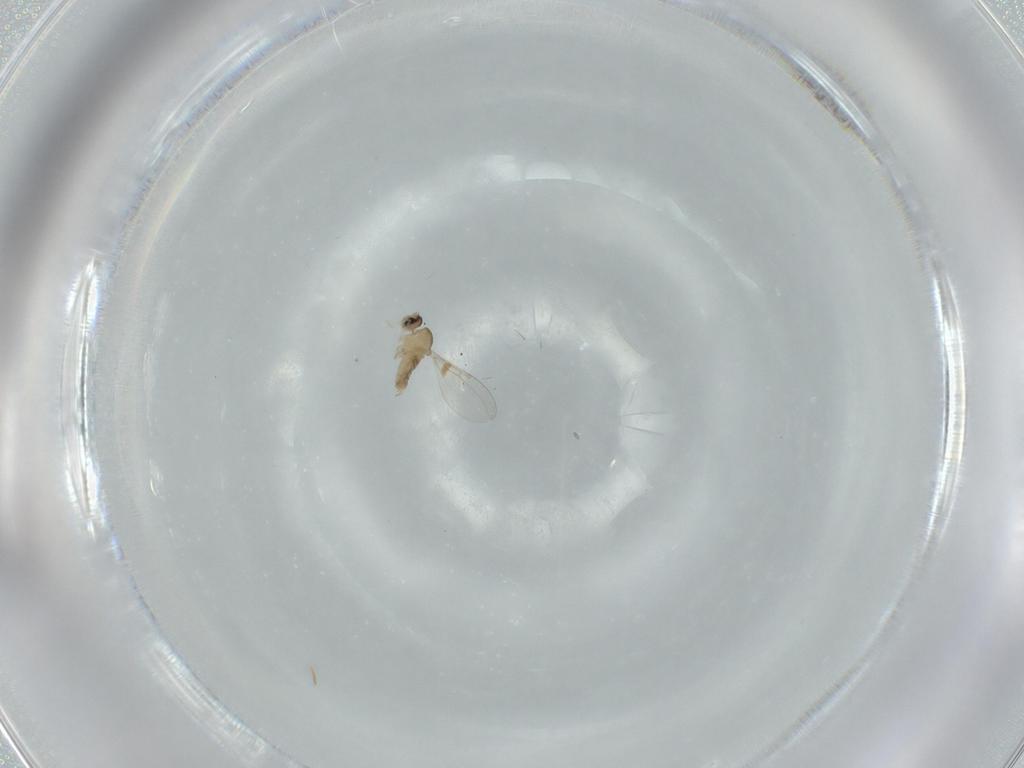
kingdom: Animalia
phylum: Arthropoda
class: Insecta
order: Diptera
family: Cecidomyiidae
